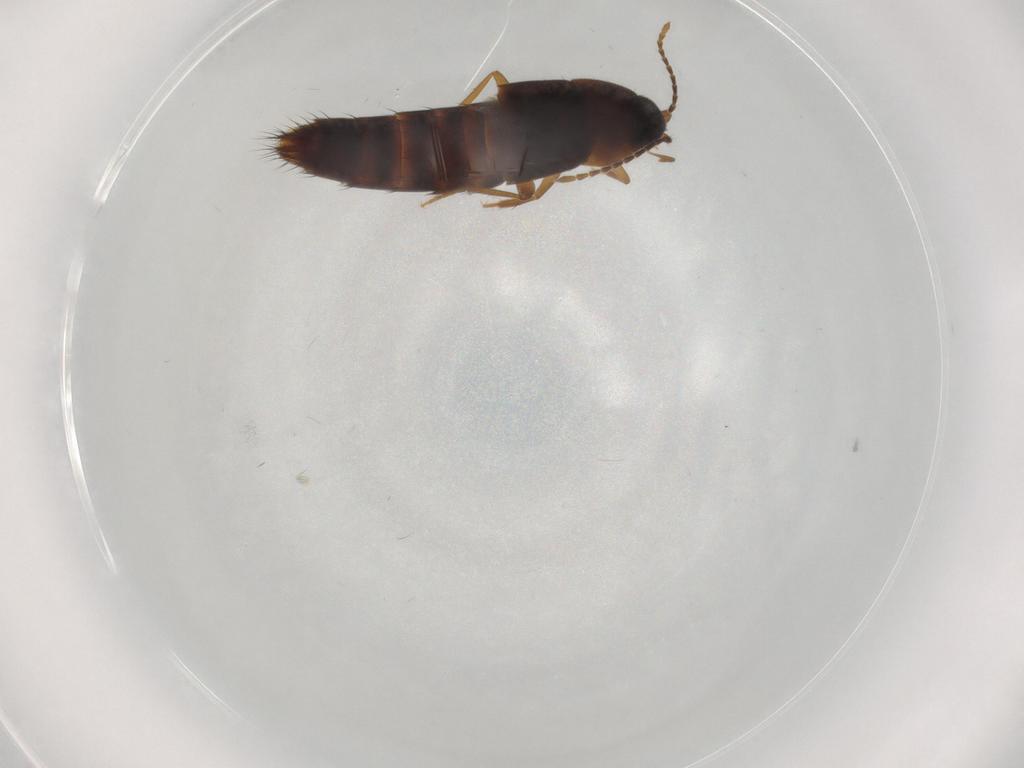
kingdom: Animalia
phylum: Arthropoda
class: Insecta
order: Coleoptera
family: Staphylinidae
